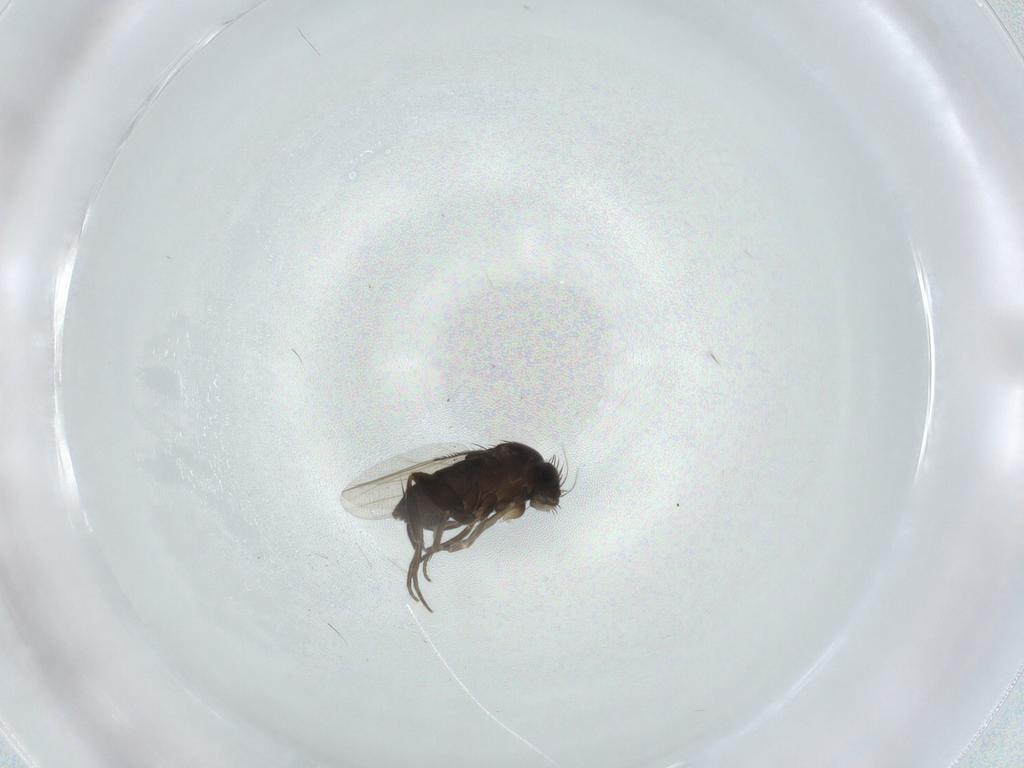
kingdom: Animalia
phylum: Arthropoda
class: Insecta
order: Diptera
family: Phoridae
